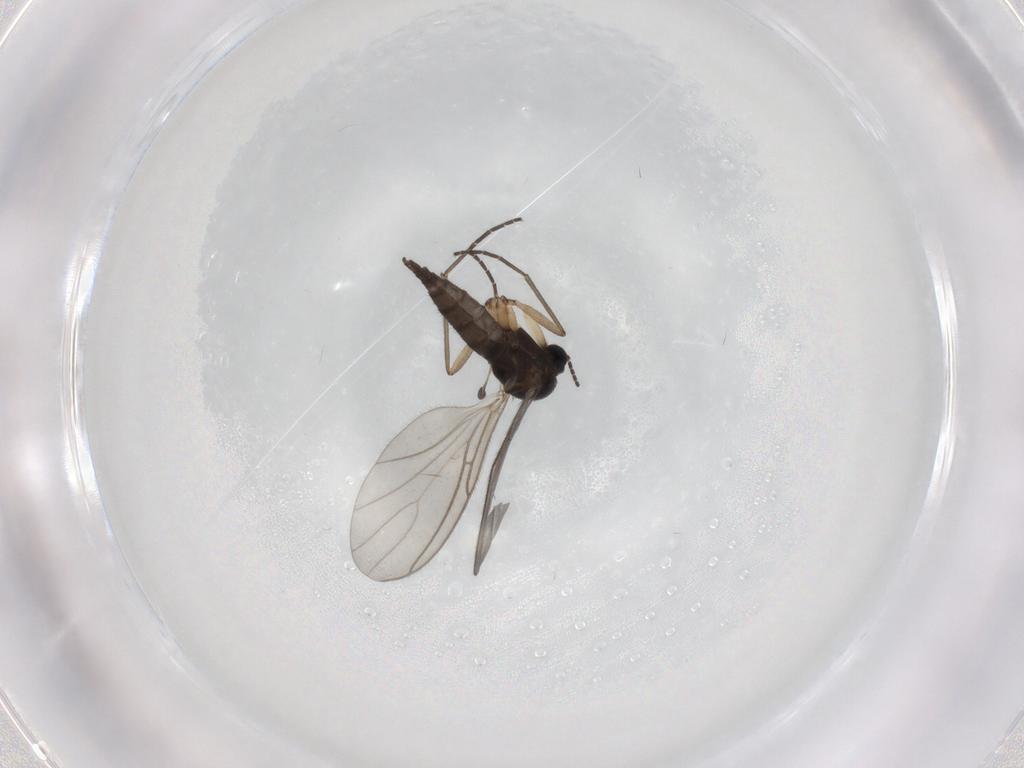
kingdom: Animalia
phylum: Arthropoda
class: Insecta
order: Diptera
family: Sciaridae
